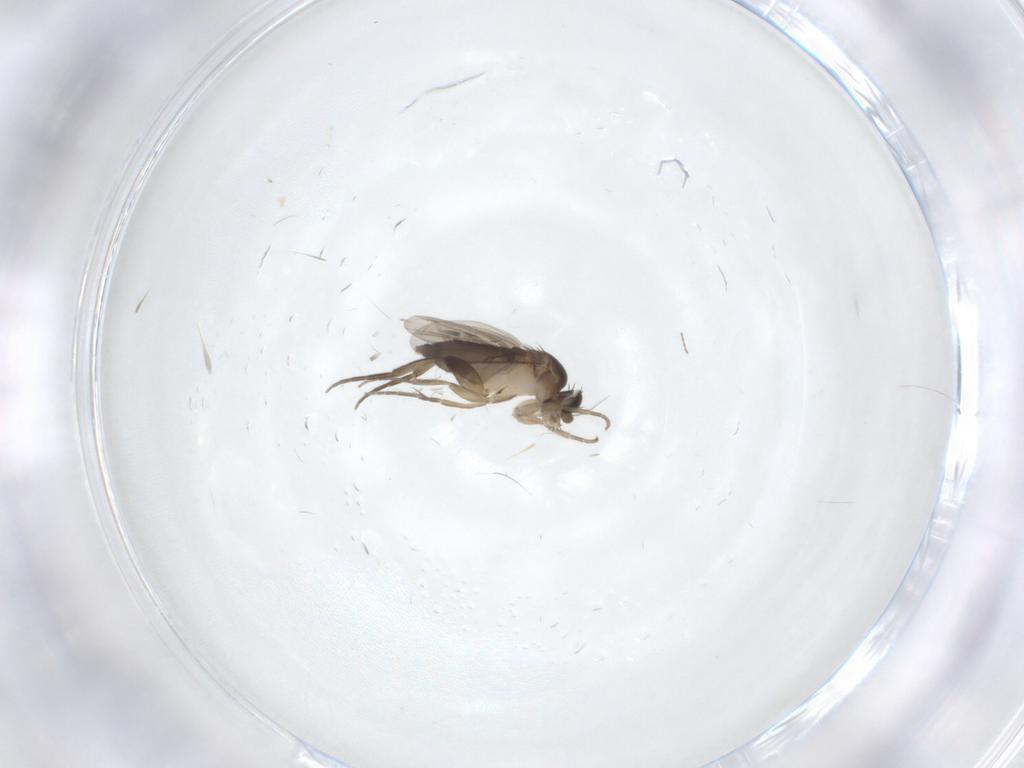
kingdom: Animalia
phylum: Arthropoda
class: Insecta
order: Diptera
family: Phoridae
